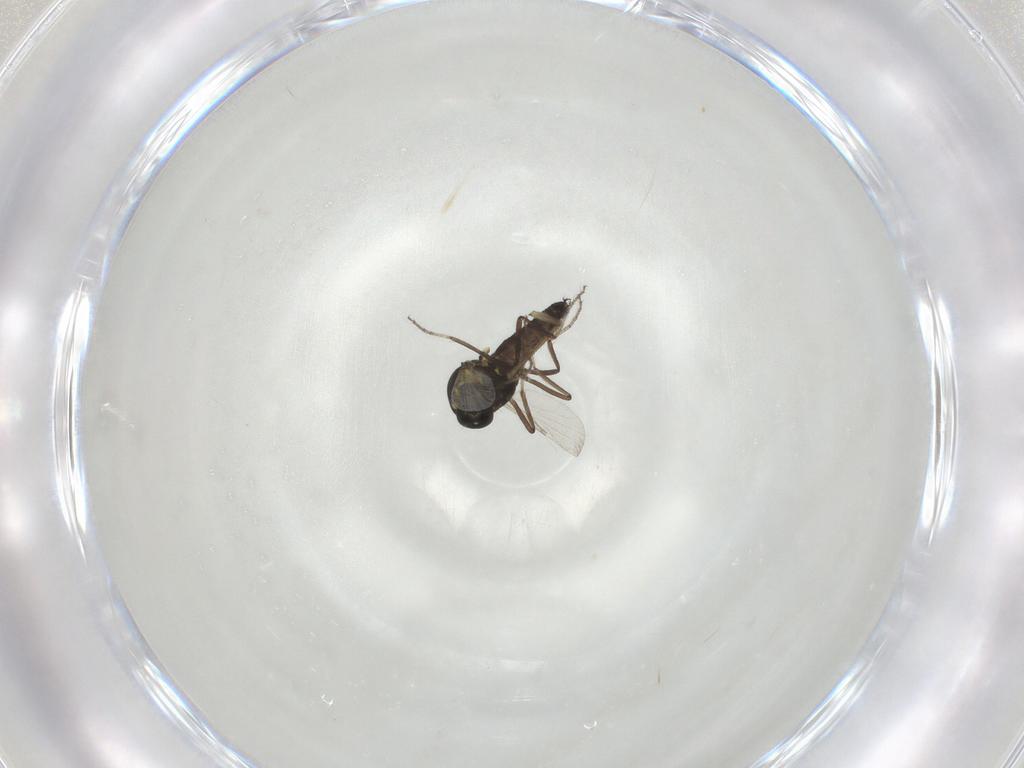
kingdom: Animalia
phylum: Arthropoda
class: Insecta
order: Diptera
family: Ceratopogonidae
